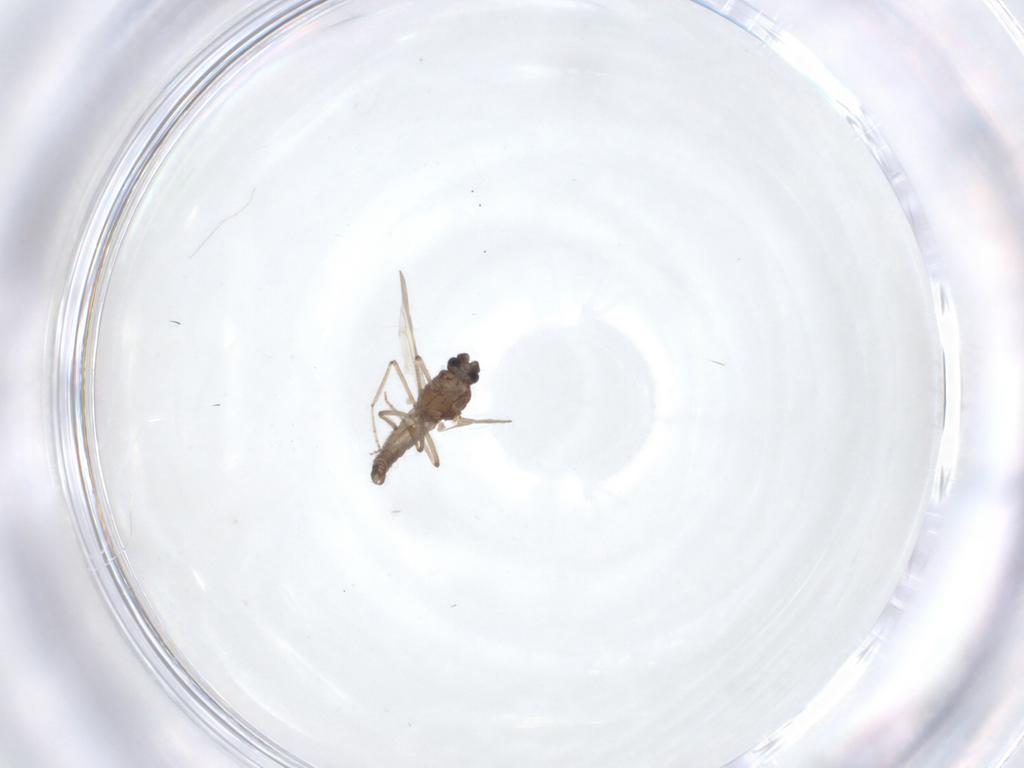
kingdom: Animalia
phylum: Arthropoda
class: Insecta
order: Diptera
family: Ceratopogonidae
